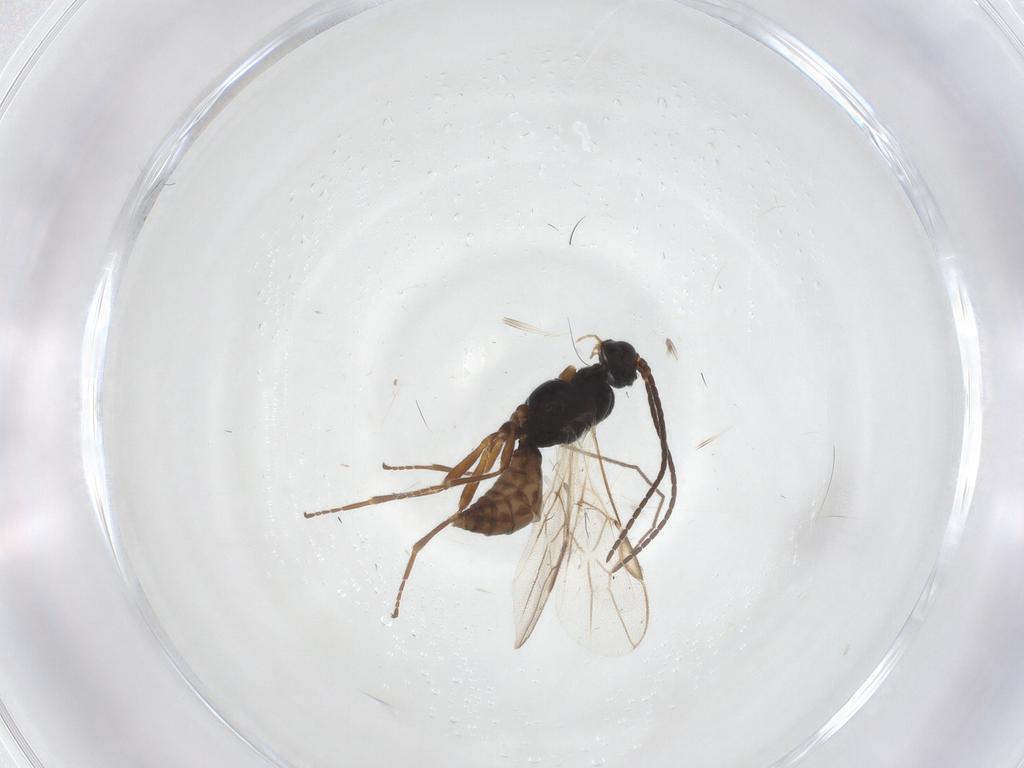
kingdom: Animalia
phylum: Arthropoda
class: Insecta
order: Hymenoptera
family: Braconidae
